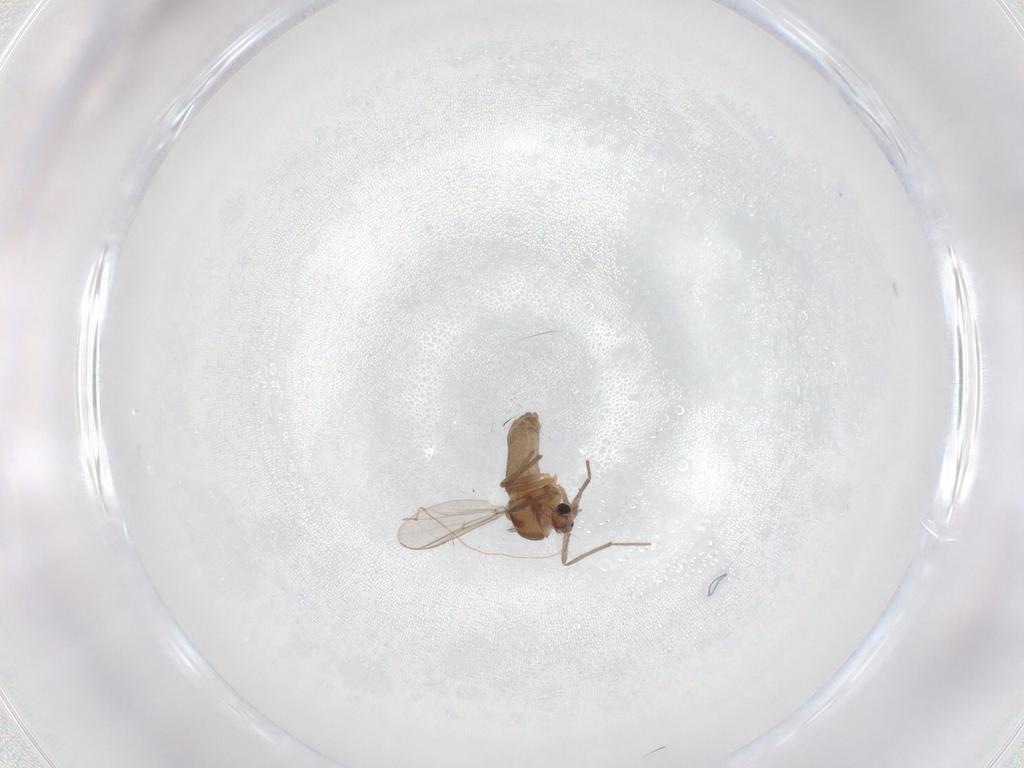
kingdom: Animalia
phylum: Arthropoda
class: Insecta
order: Diptera
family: Chironomidae
